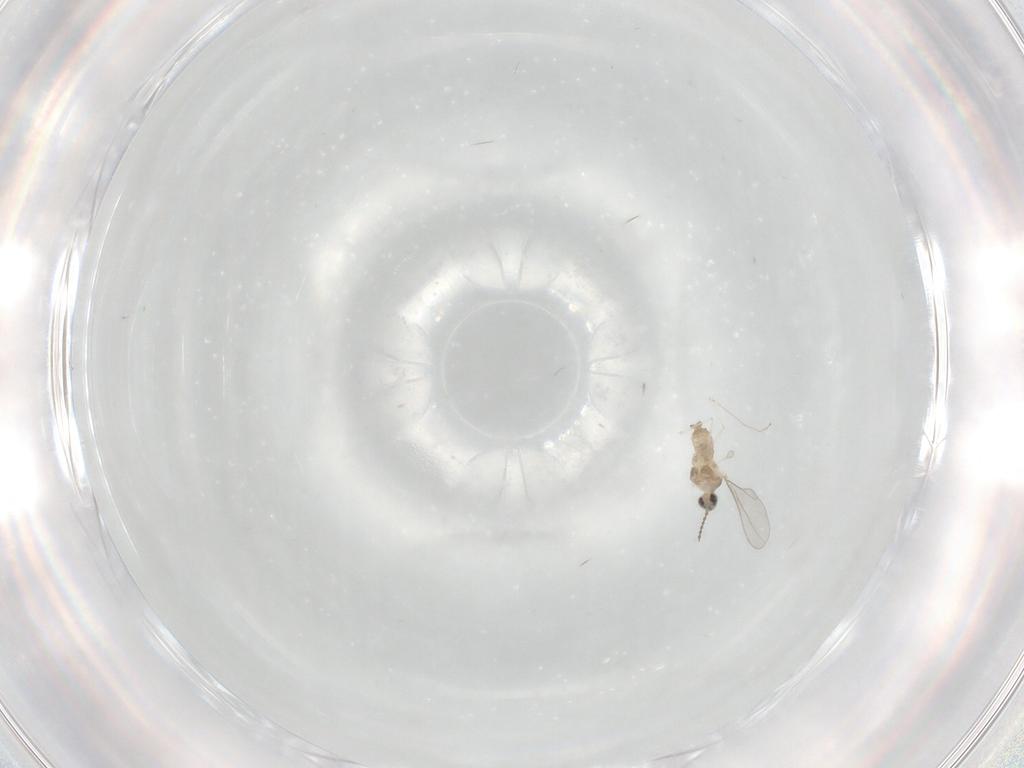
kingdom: Animalia
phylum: Arthropoda
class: Insecta
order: Diptera
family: Cecidomyiidae
